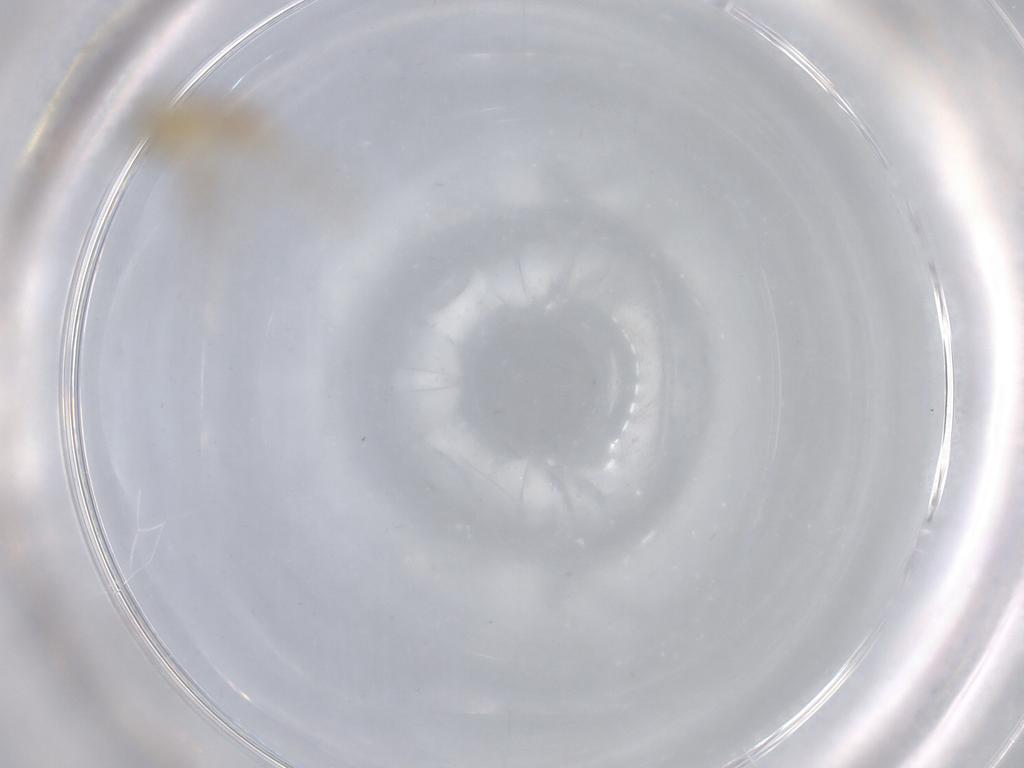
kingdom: Animalia
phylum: Arthropoda
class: Insecta
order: Diptera
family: Chironomidae
